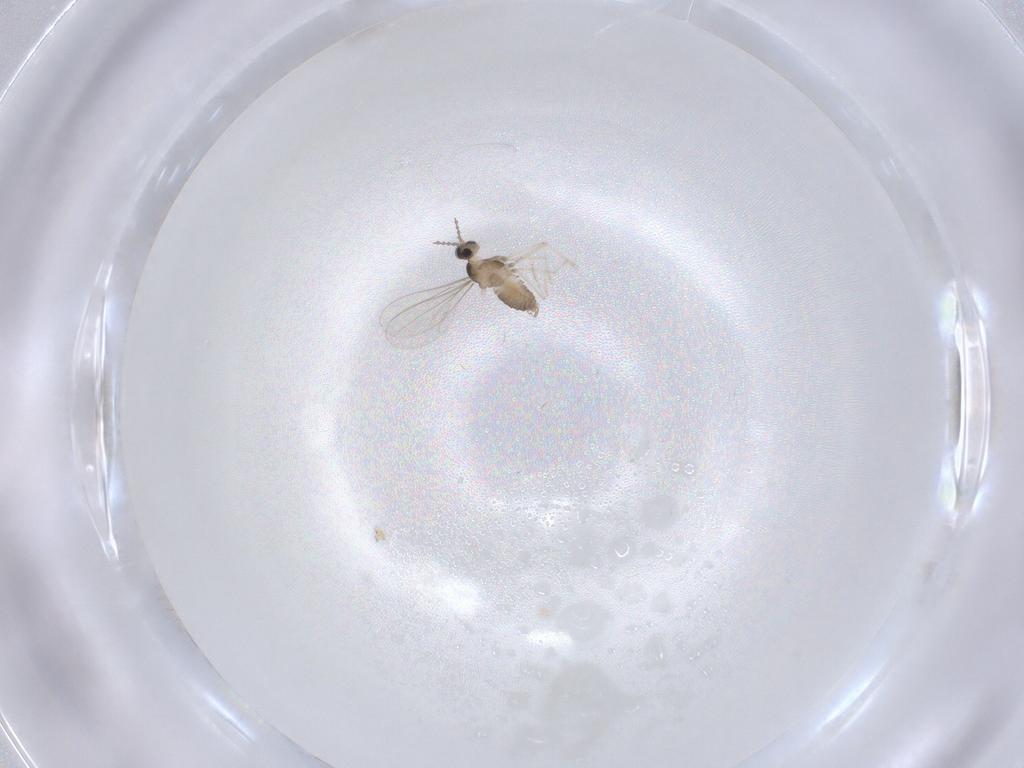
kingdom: Animalia
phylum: Arthropoda
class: Insecta
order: Diptera
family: Cecidomyiidae
